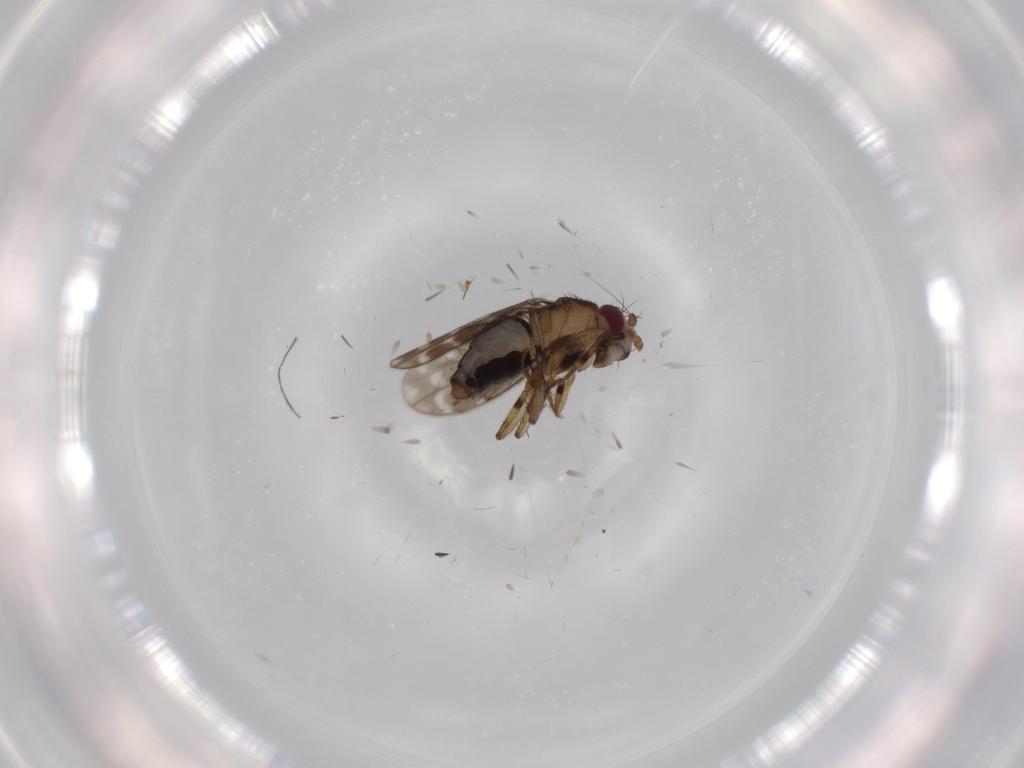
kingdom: Animalia
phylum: Arthropoda
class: Insecta
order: Diptera
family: Sphaeroceridae
